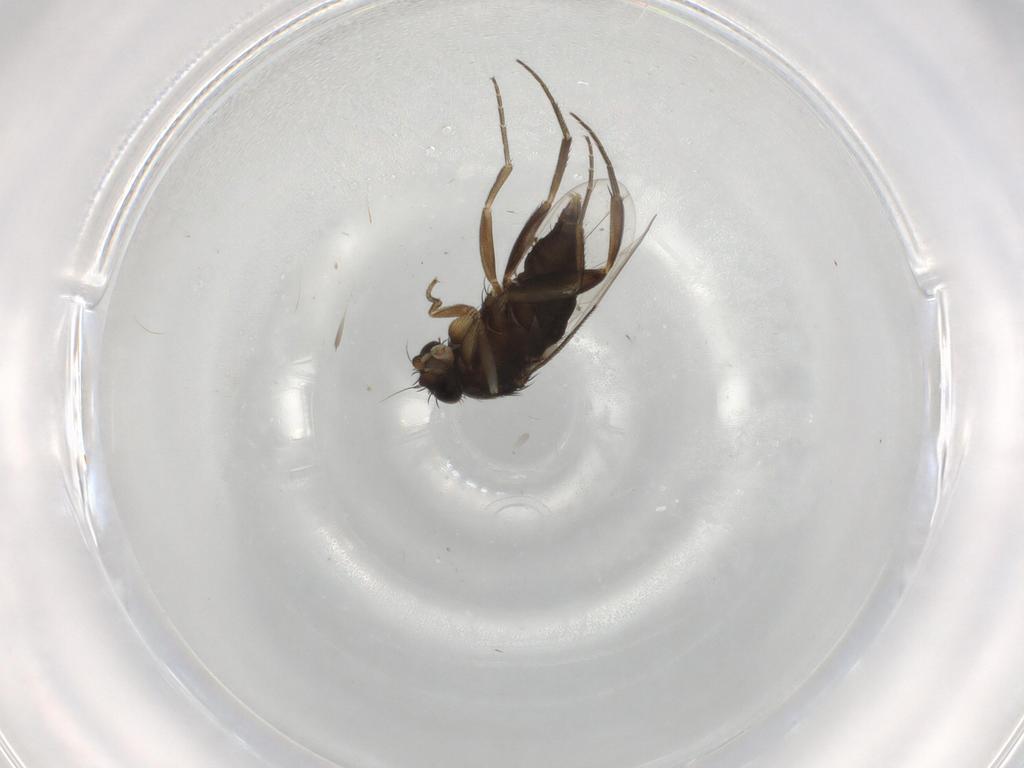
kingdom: Animalia
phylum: Arthropoda
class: Insecta
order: Diptera
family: Phoridae
